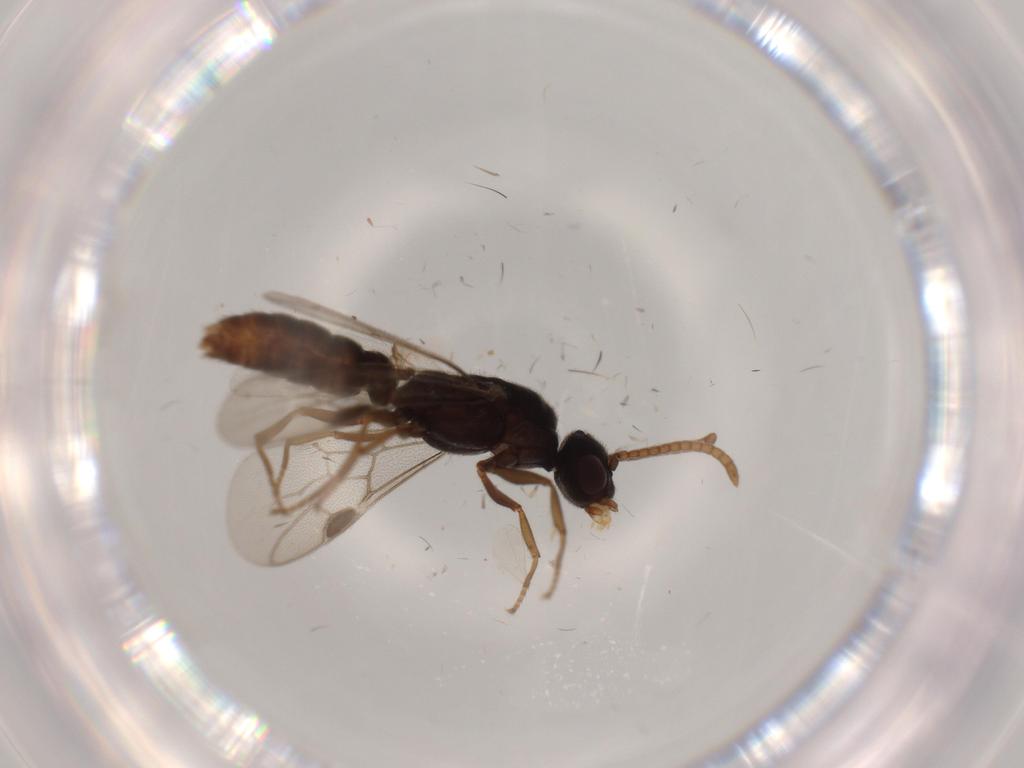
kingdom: Animalia
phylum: Arthropoda
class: Insecta
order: Hymenoptera
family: Formicidae
